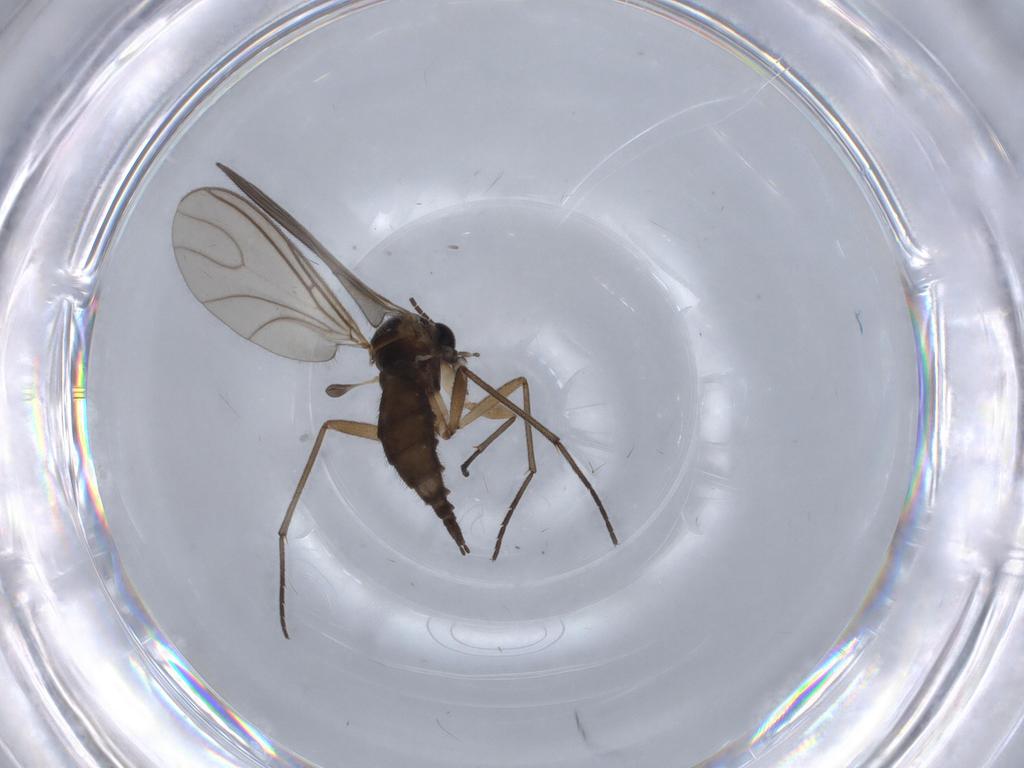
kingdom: Animalia
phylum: Arthropoda
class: Insecta
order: Diptera
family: Sciaridae
